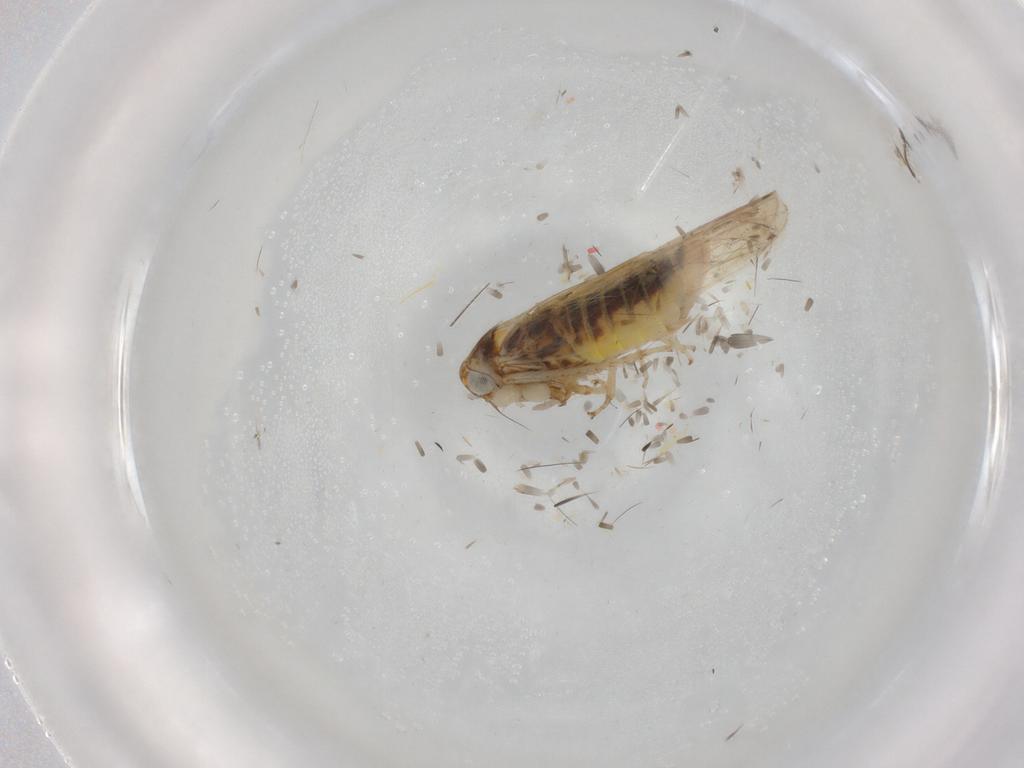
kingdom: Animalia
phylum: Arthropoda
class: Insecta
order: Hemiptera
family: Cicadellidae
